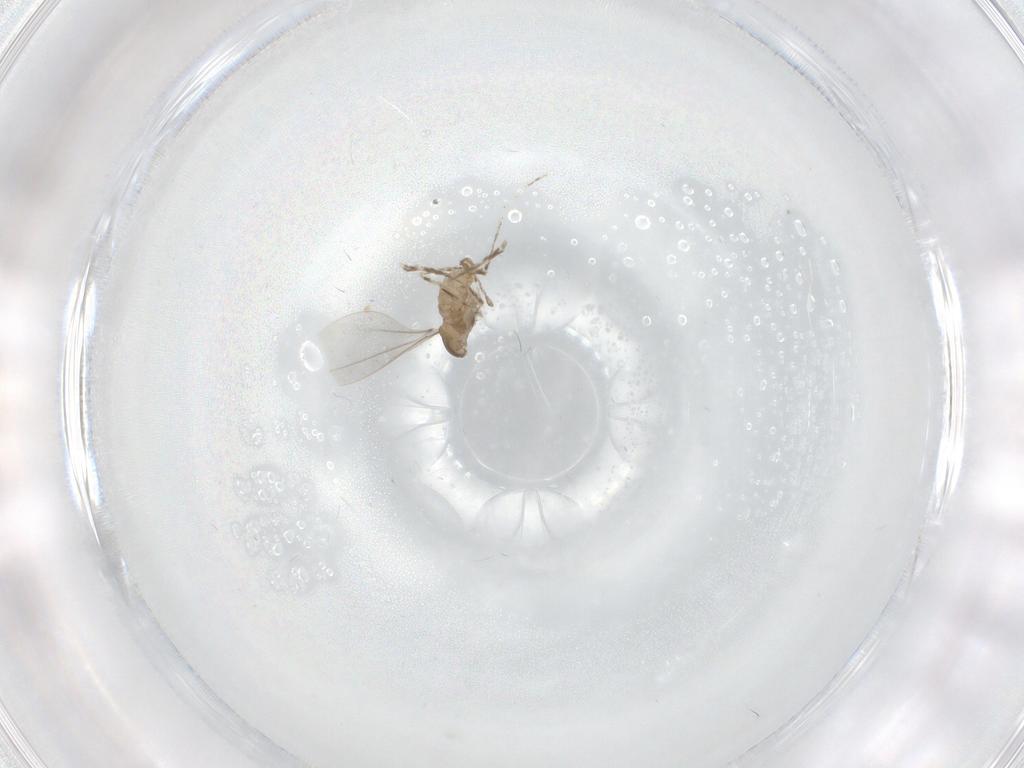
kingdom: Animalia
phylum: Arthropoda
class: Insecta
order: Diptera
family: Cecidomyiidae
